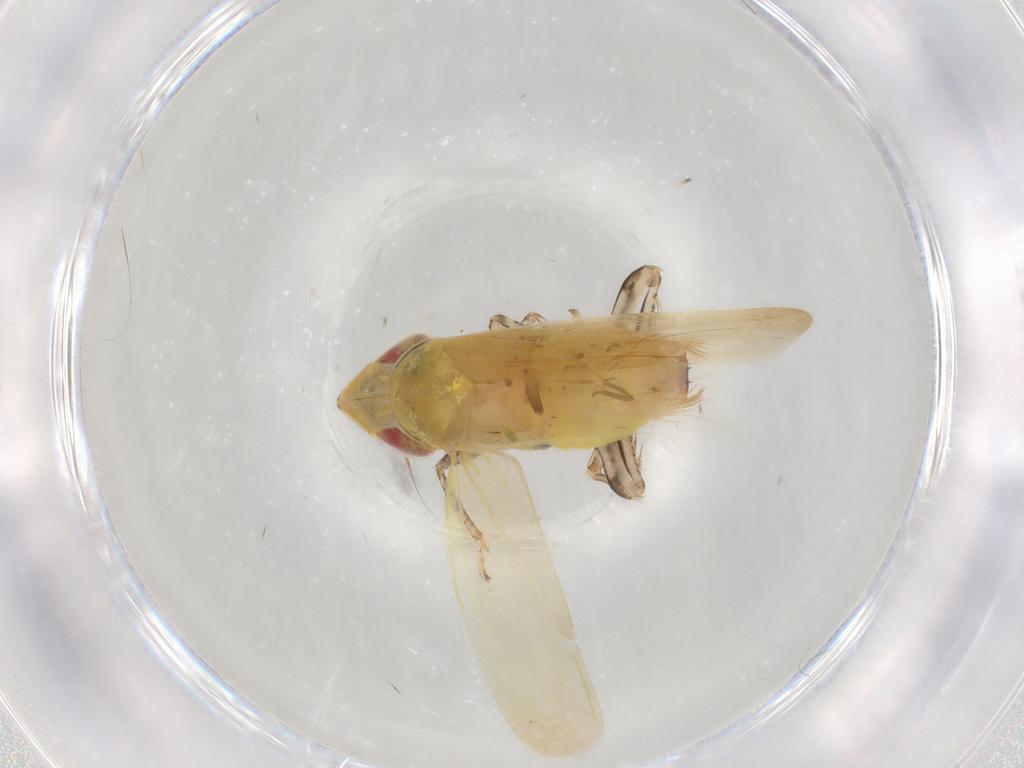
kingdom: Animalia
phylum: Arthropoda
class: Insecta
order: Hemiptera
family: Cicadellidae
